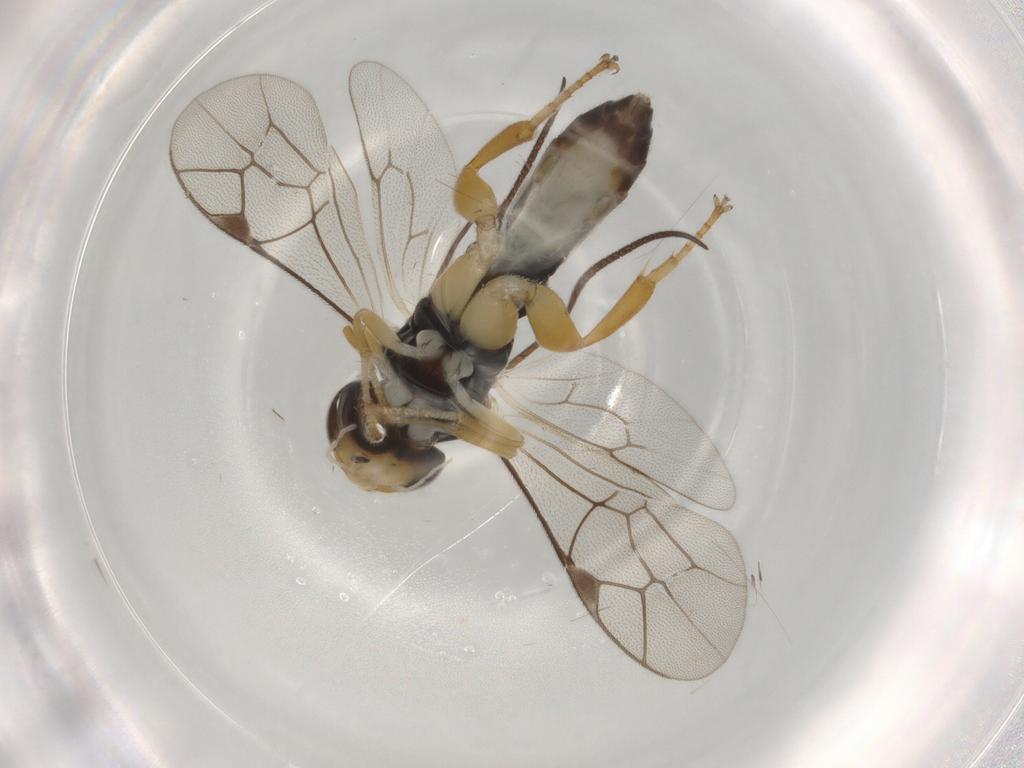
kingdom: Animalia
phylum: Arthropoda
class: Insecta
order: Hymenoptera
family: Ichneumonidae
